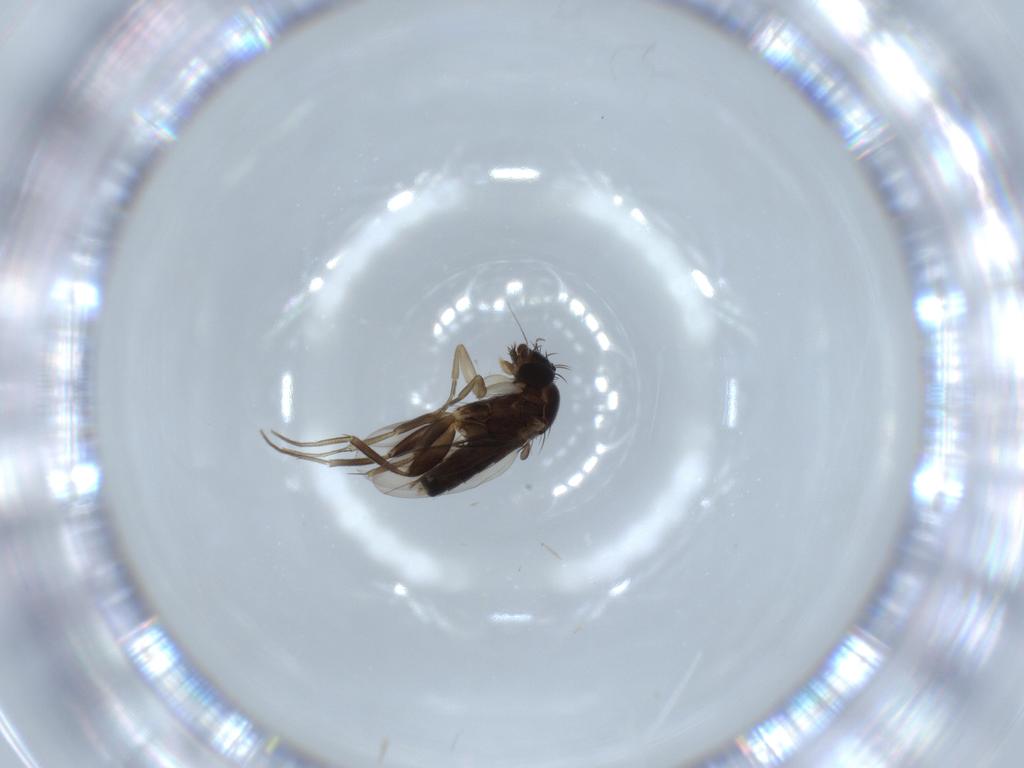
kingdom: Animalia
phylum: Arthropoda
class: Insecta
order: Diptera
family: Phoridae
